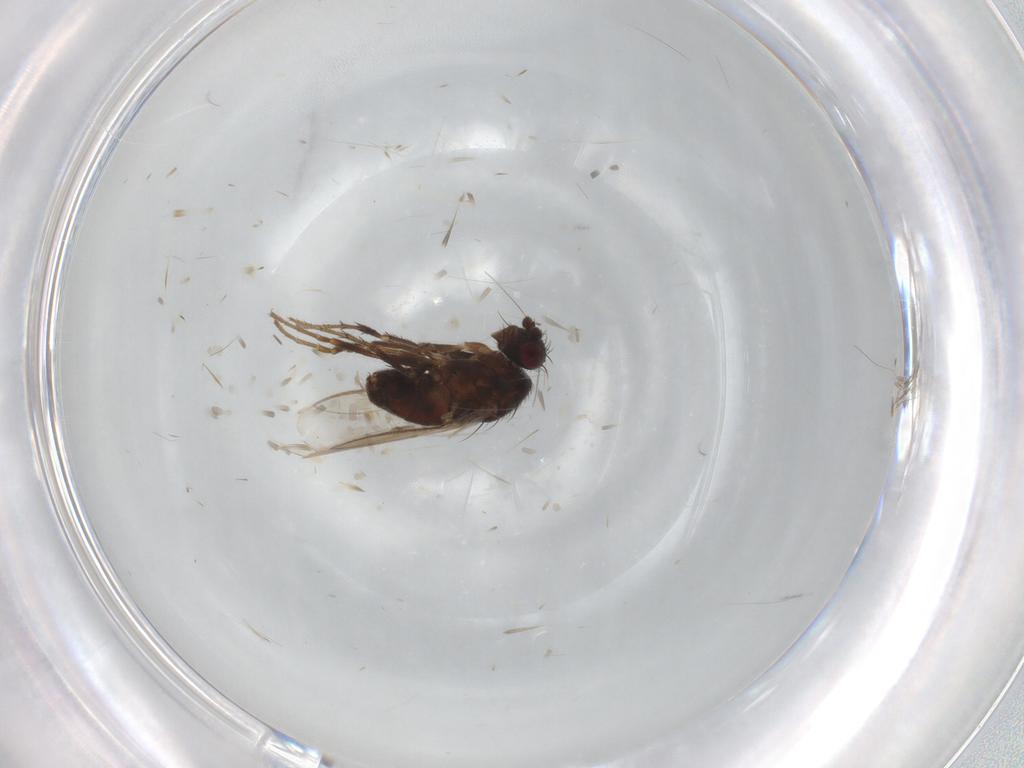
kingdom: Animalia
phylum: Arthropoda
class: Insecta
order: Diptera
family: Sphaeroceridae
